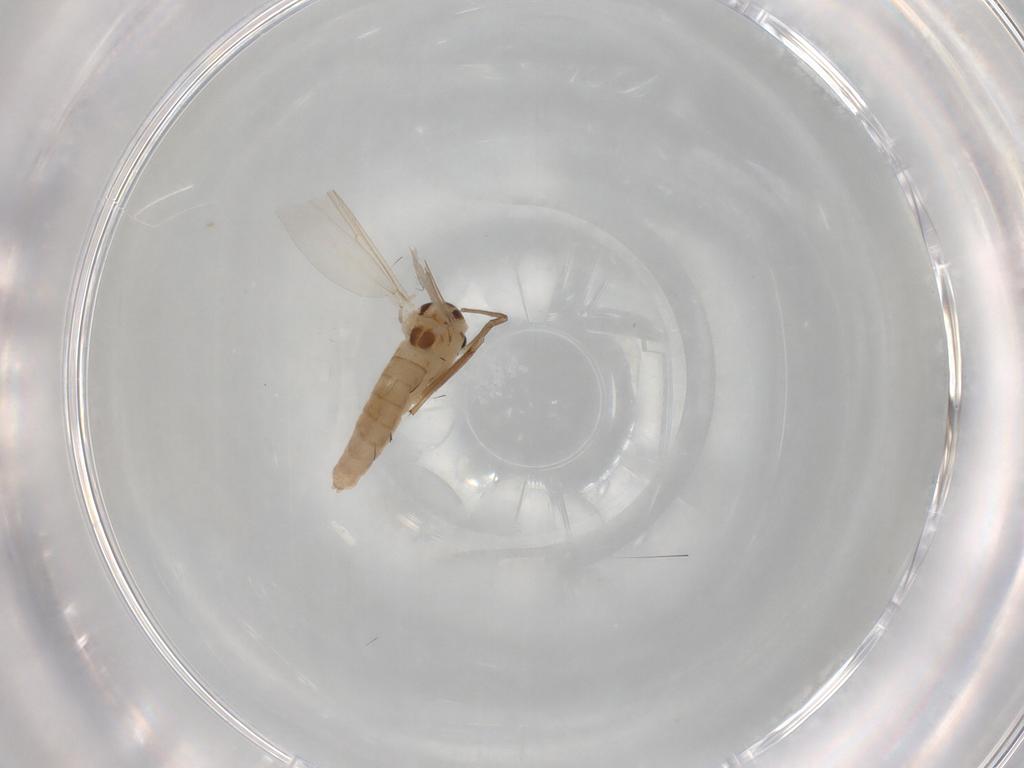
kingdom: Animalia
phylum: Arthropoda
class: Insecta
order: Diptera
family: Chironomidae
